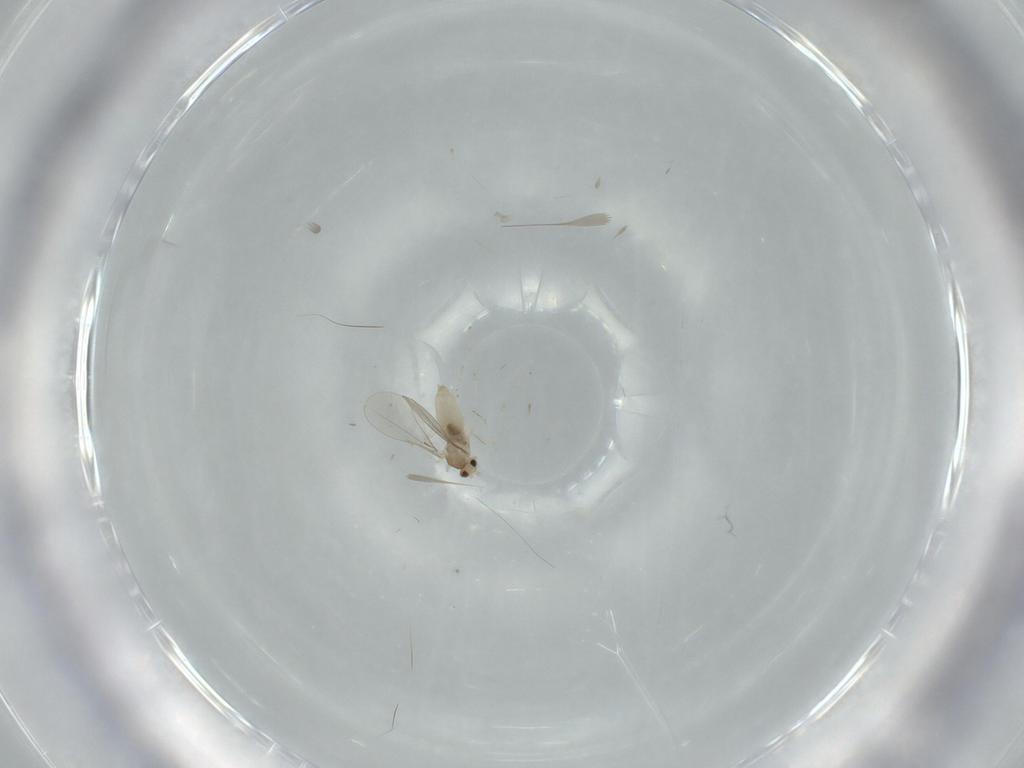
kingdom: Animalia
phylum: Arthropoda
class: Insecta
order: Diptera
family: Cecidomyiidae
